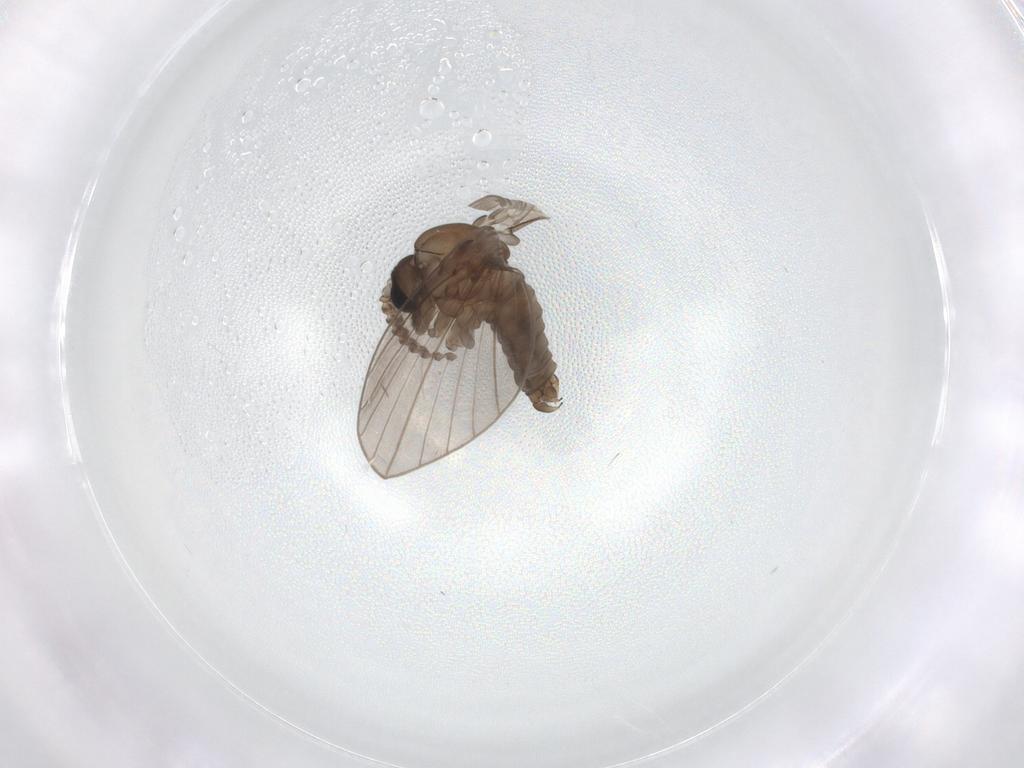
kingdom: Animalia
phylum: Arthropoda
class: Insecta
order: Diptera
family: Psychodidae
